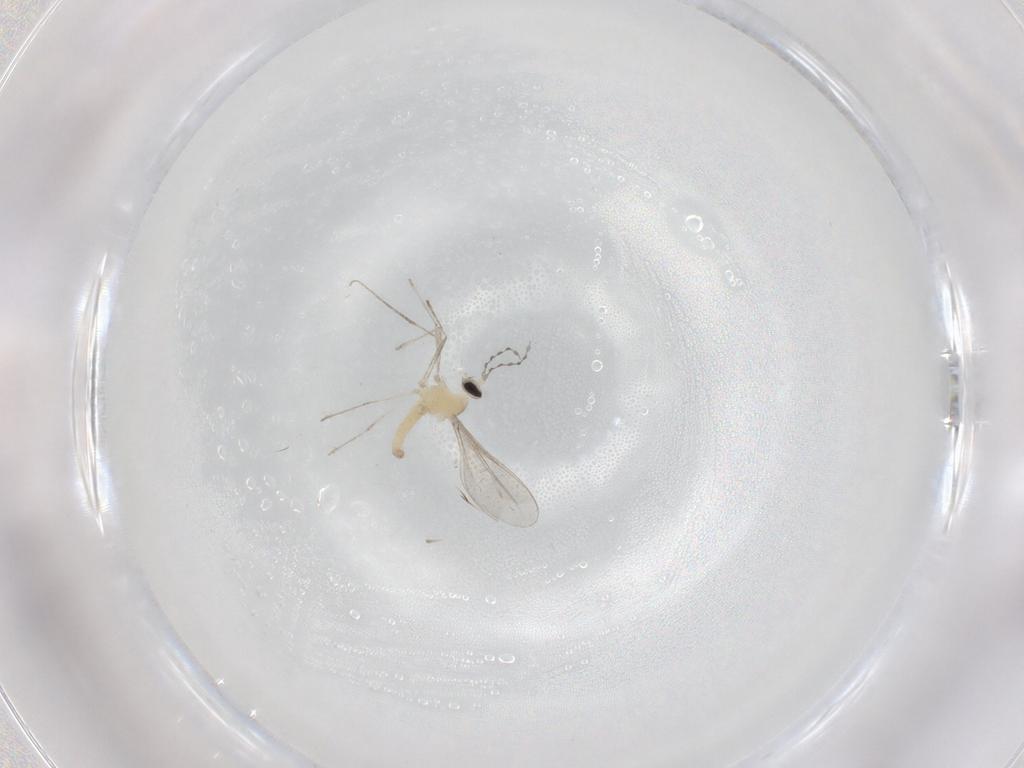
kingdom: Animalia
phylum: Arthropoda
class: Insecta
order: Diptera
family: Cecidomyiidae
